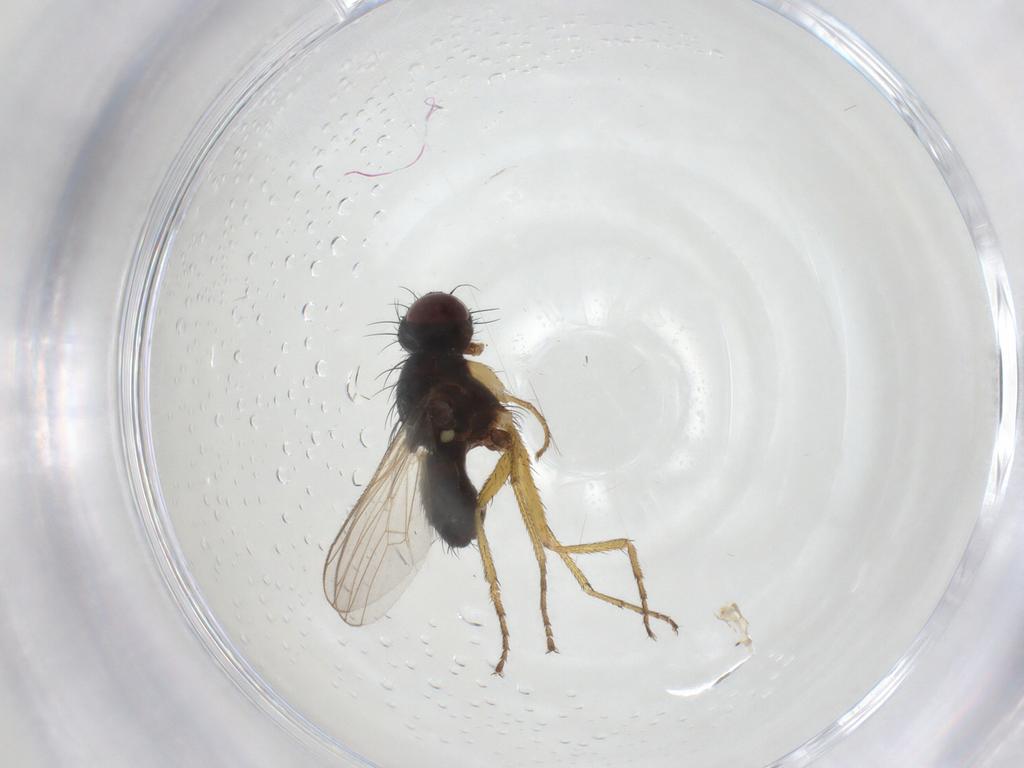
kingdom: Animalia
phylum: Arthropoda
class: Insecta
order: Diptera
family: Muscidae
